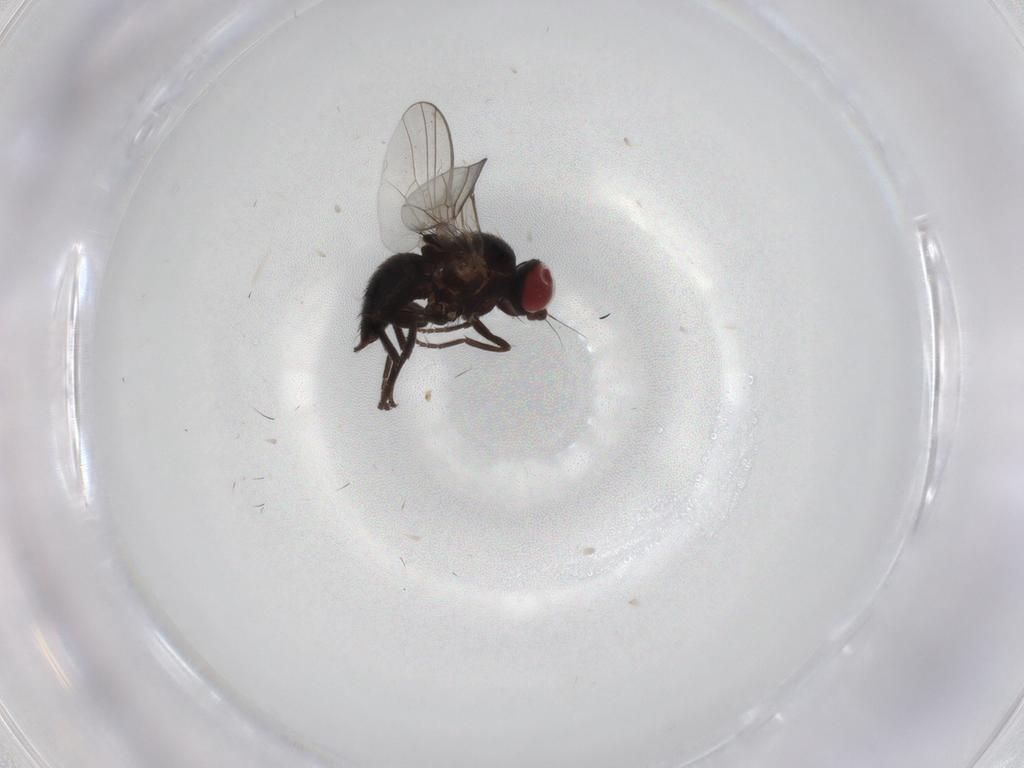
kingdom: Animalia
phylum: Arthropoda
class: Insecta
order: Diptera
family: Clusiidae
